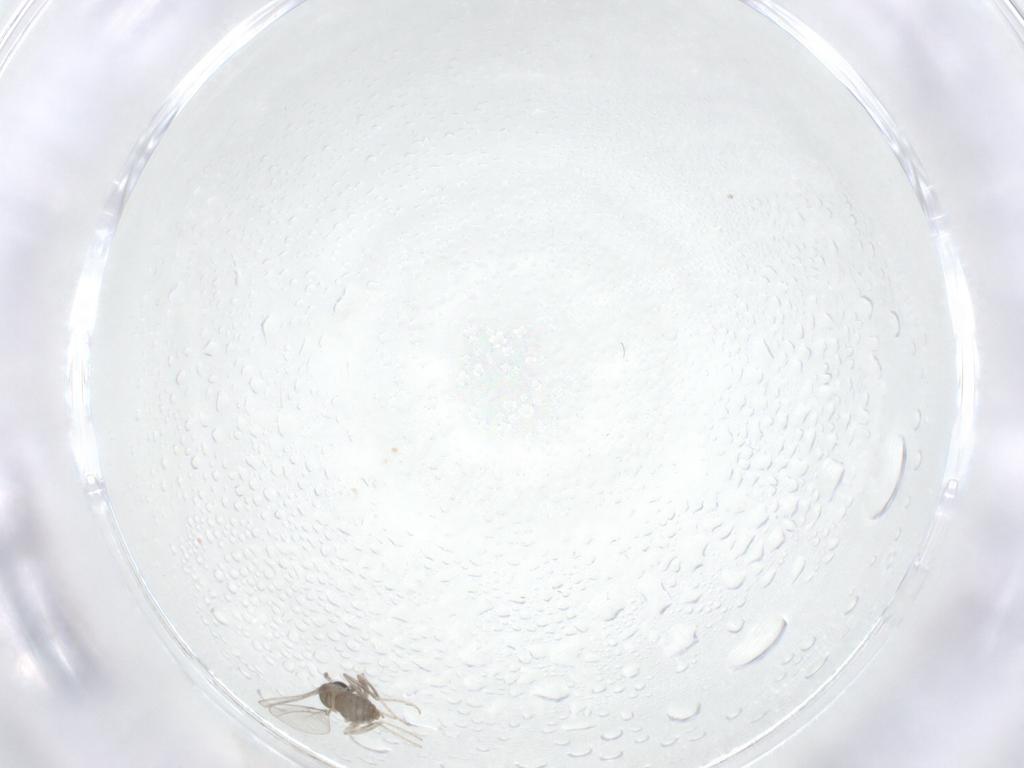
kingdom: Animalia
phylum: Arthropoda
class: Insecta
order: Diptera
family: Cecidomyiidae
